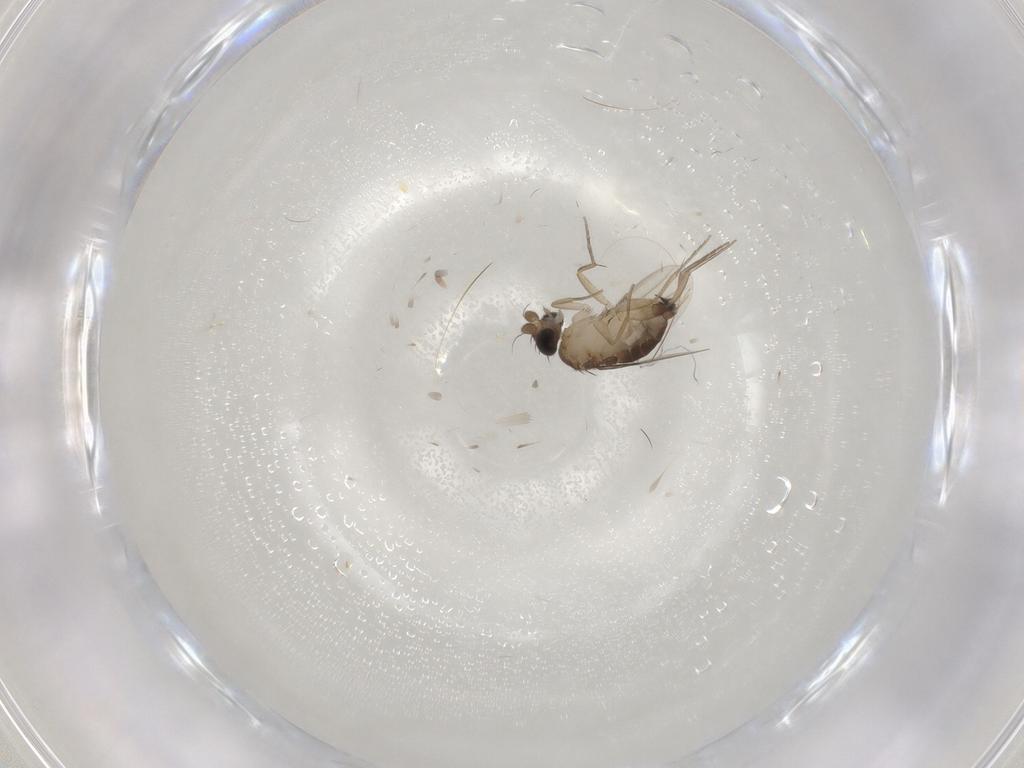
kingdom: Animalia
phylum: Arthropoda
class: Insecta
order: Diptera
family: Phoridae
